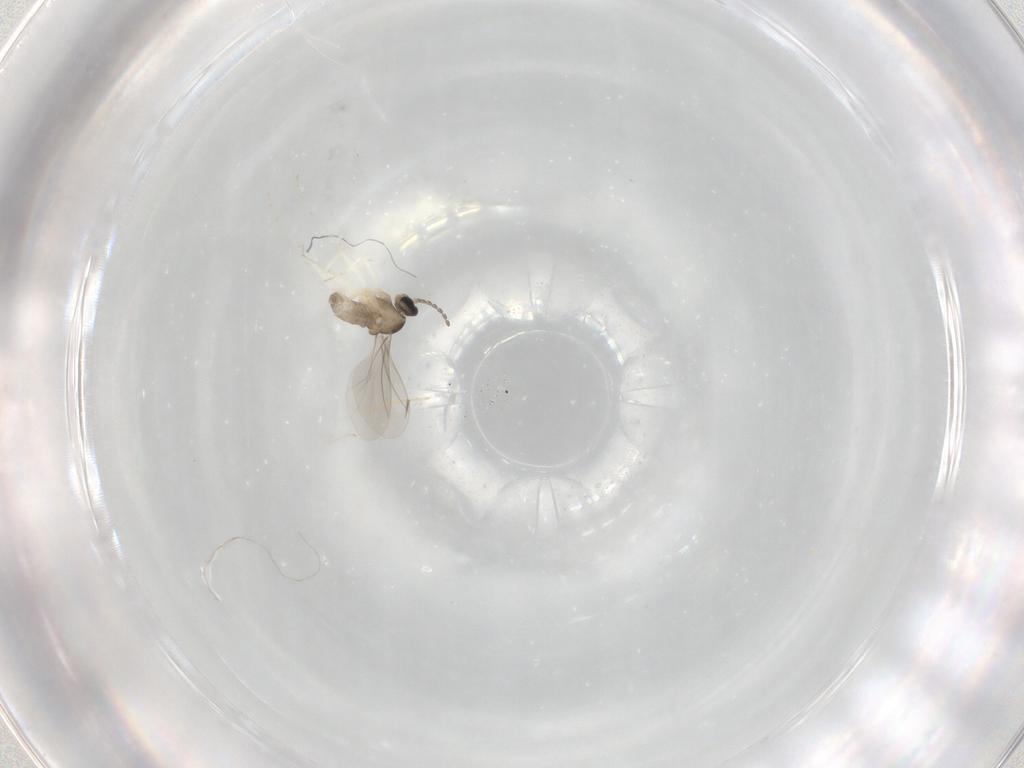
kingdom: Animalia
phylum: Arthropoda
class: Insecta
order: Diptera
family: Chironomidae
